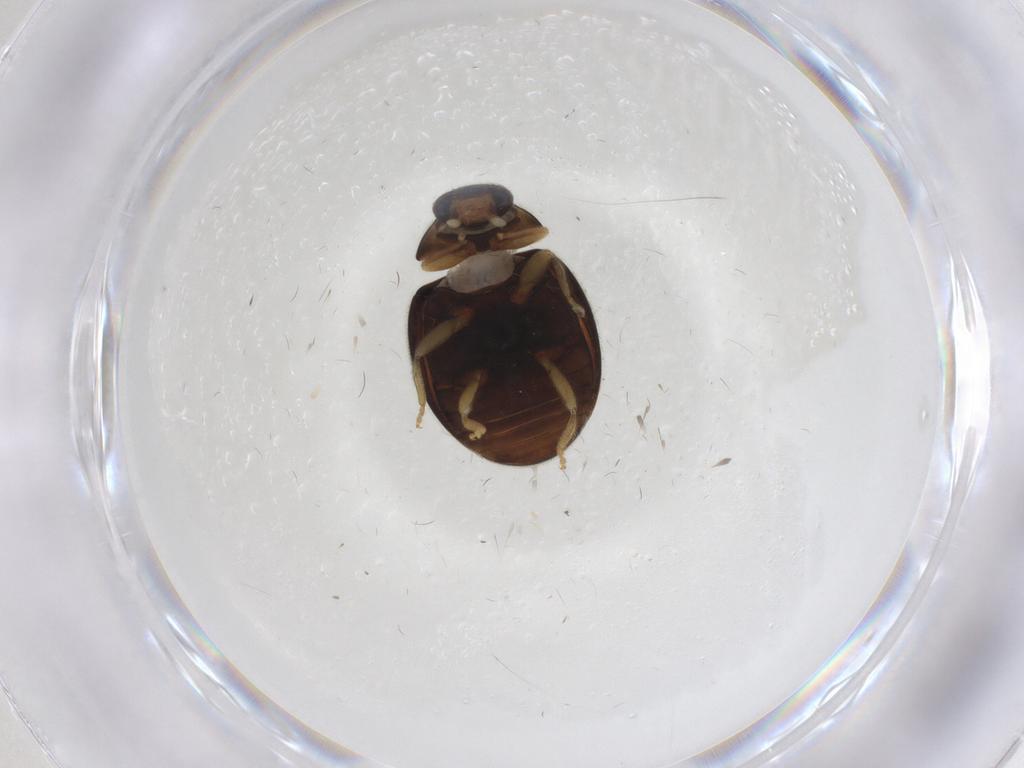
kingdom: Animalia
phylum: Arthropoda
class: Insecta
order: Coleoptera
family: Coccinellidae
